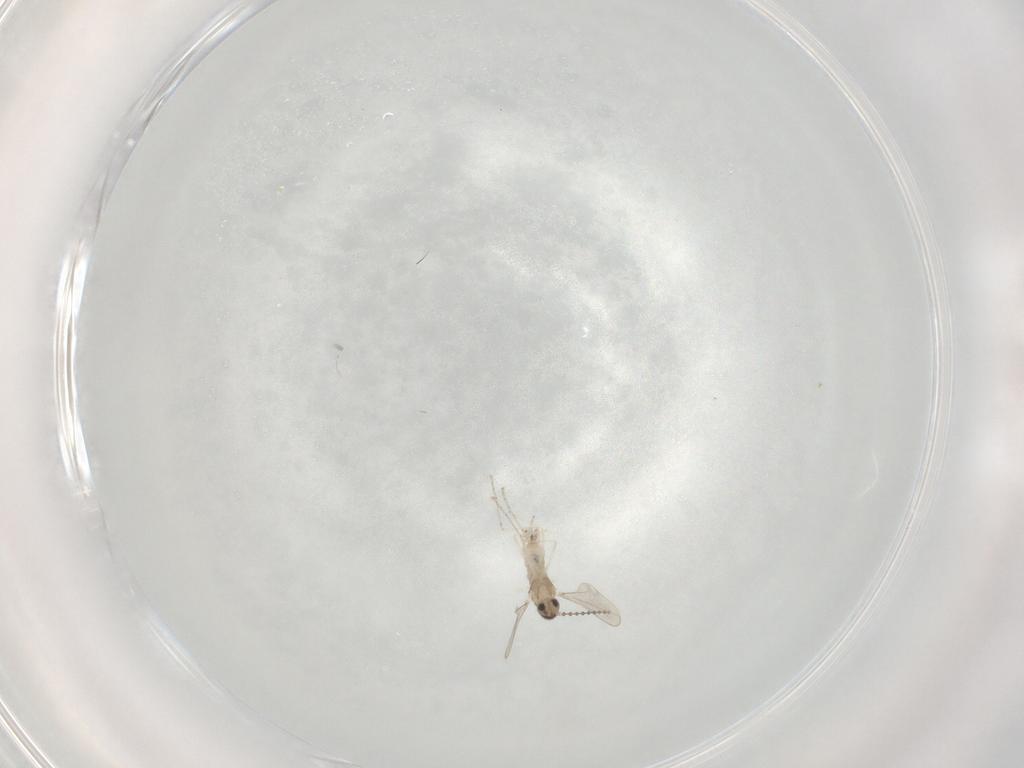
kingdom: Animalia
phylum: Arthropoda
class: Insecta
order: Diptera
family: Cecidomyiidae
